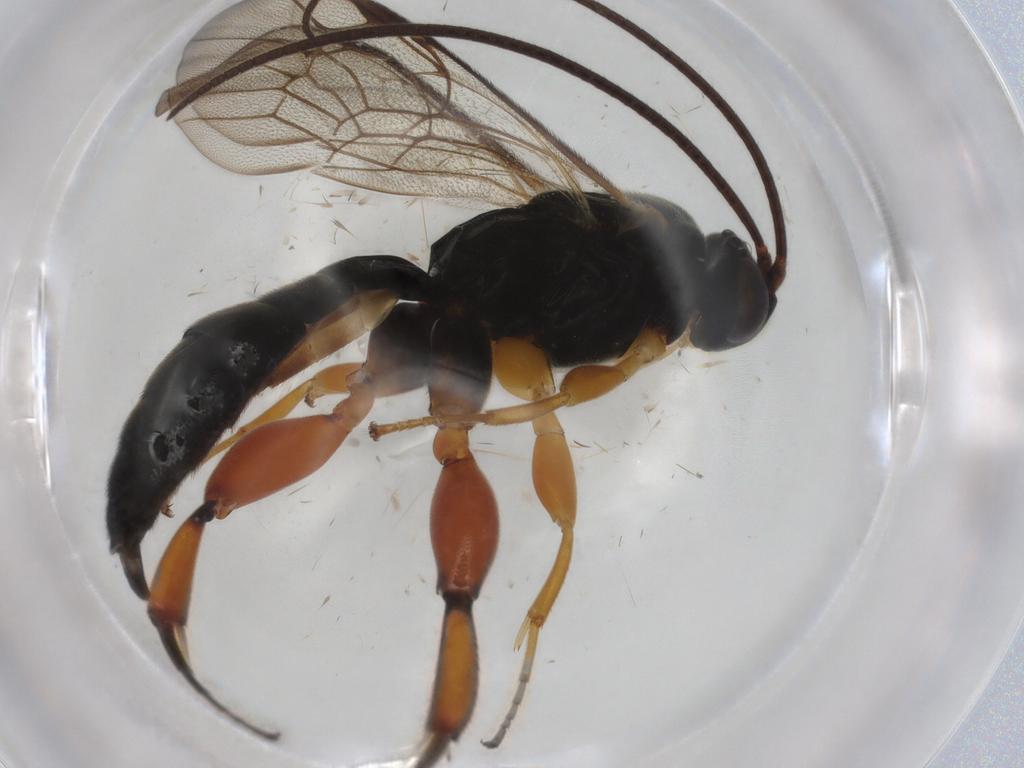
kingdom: Animalia
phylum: Arthropoda
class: Insecta
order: Hymenoptera
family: Ichneumonidae
